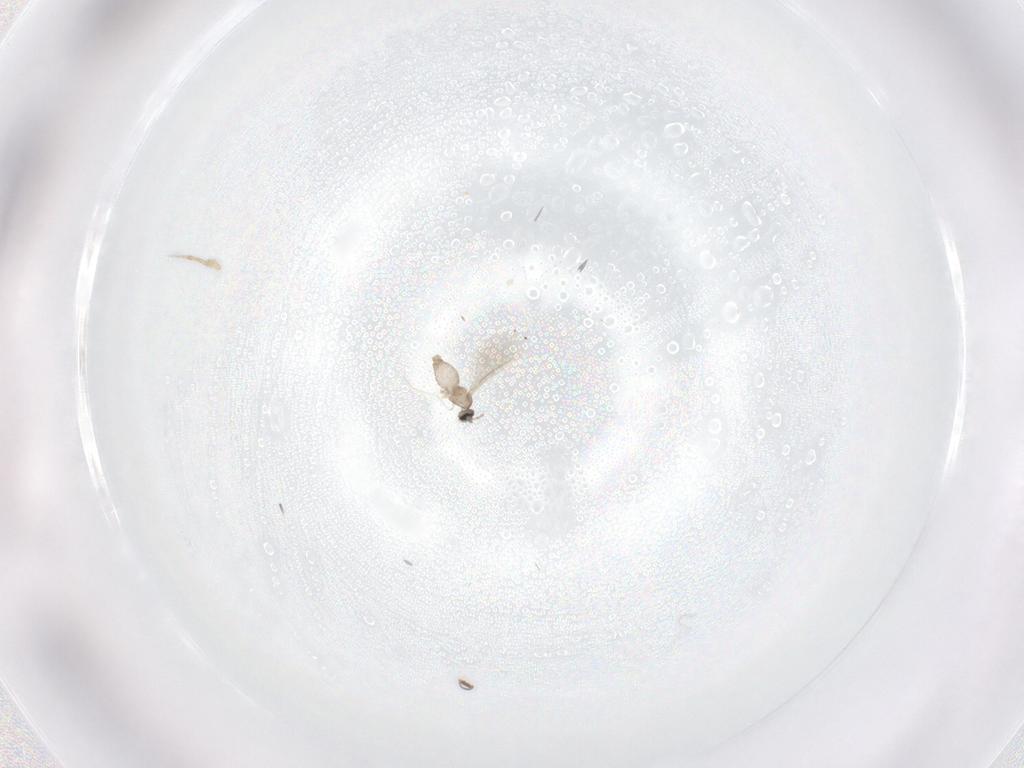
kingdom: Animalia
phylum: Arthropoda
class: Insecta
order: Diptera
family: Cecidomyiidae
